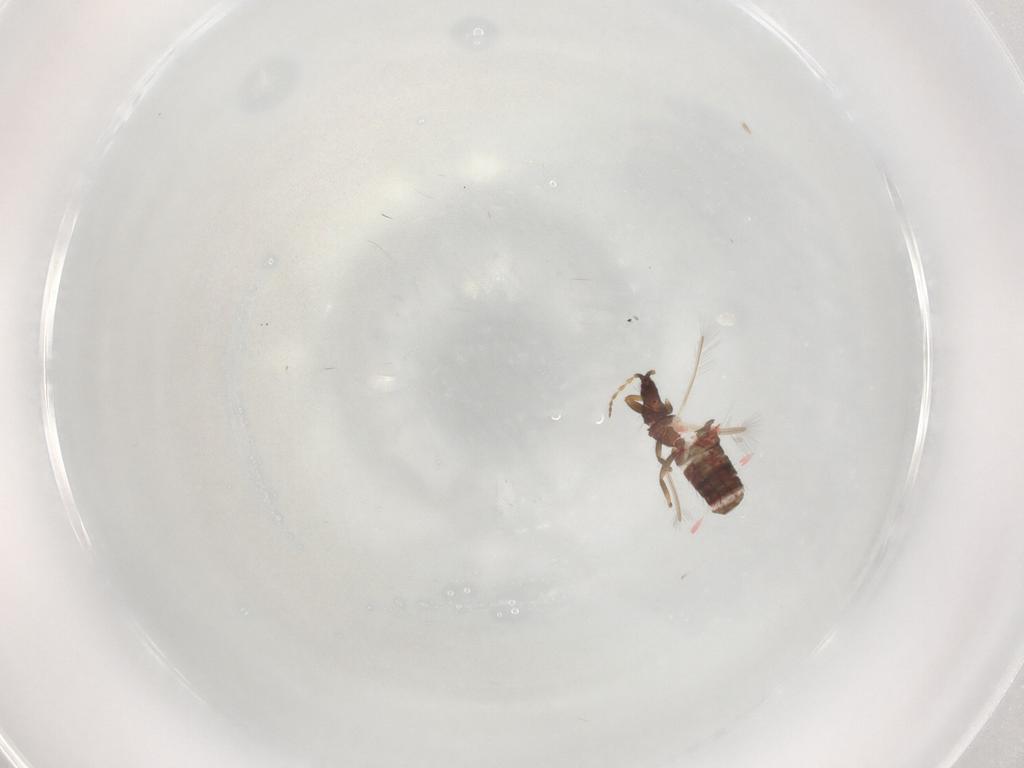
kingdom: Animalia
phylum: Arthropoda
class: Insecta
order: Thysanoptera
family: Phlaeothripidae
